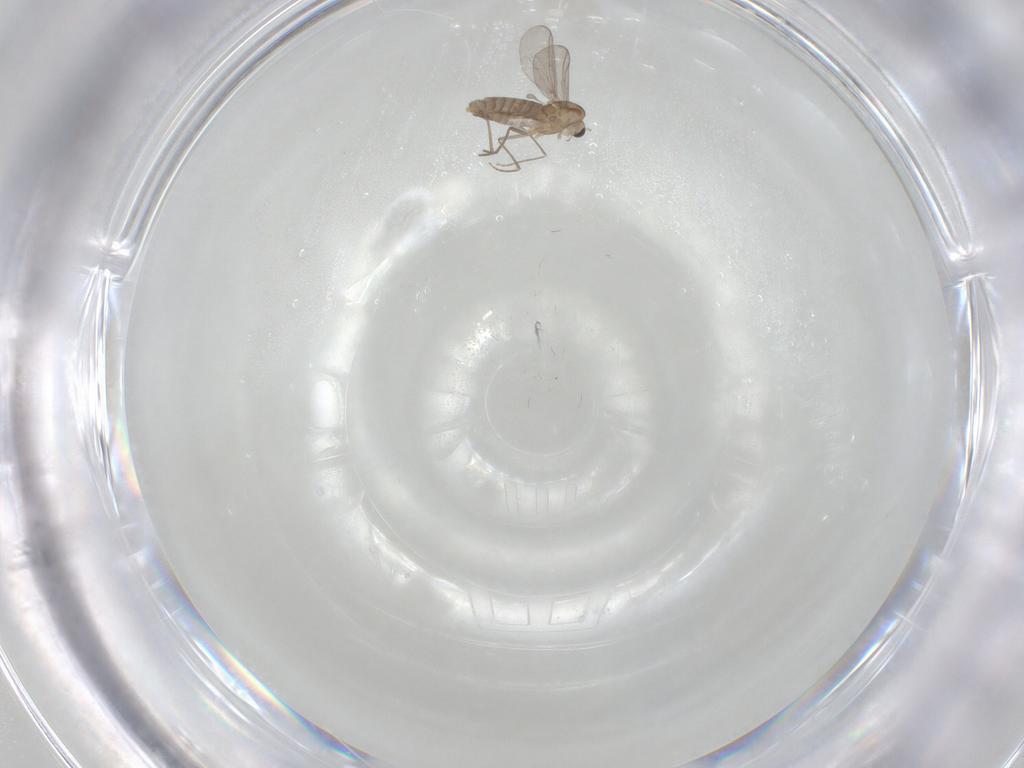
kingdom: Animalia
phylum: Arthropoda
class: Insecta
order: Diptera
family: Chironomidae
